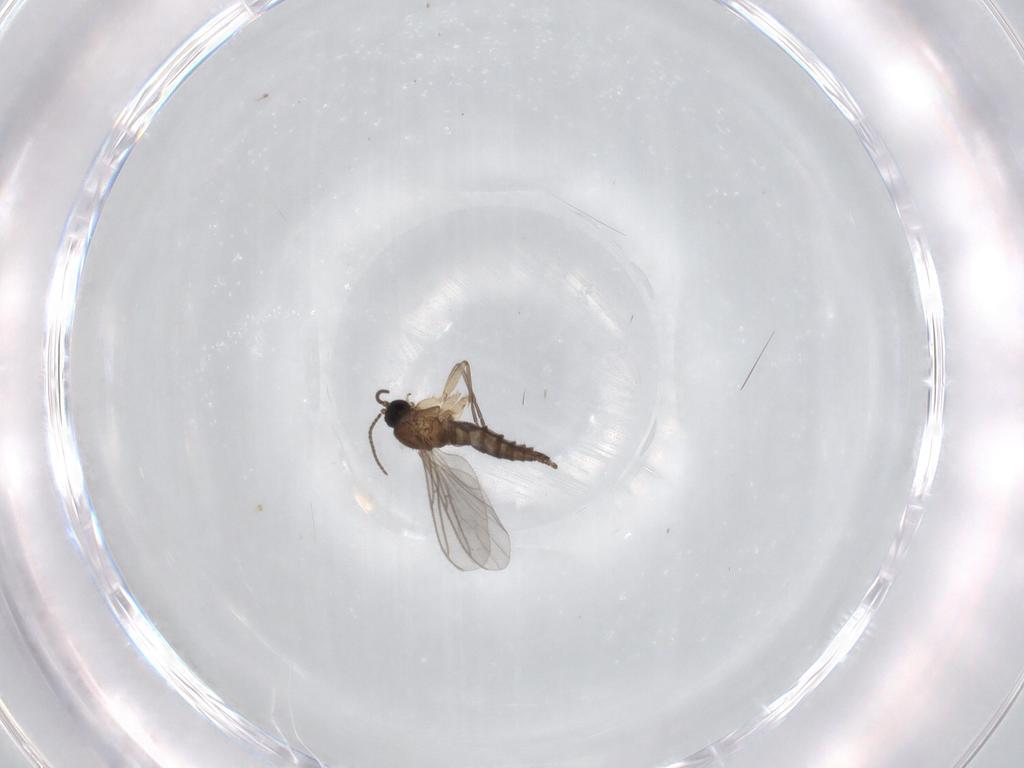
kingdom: Animalia
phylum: Arthropoda
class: Insecta
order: Diptera
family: Sciaridae
